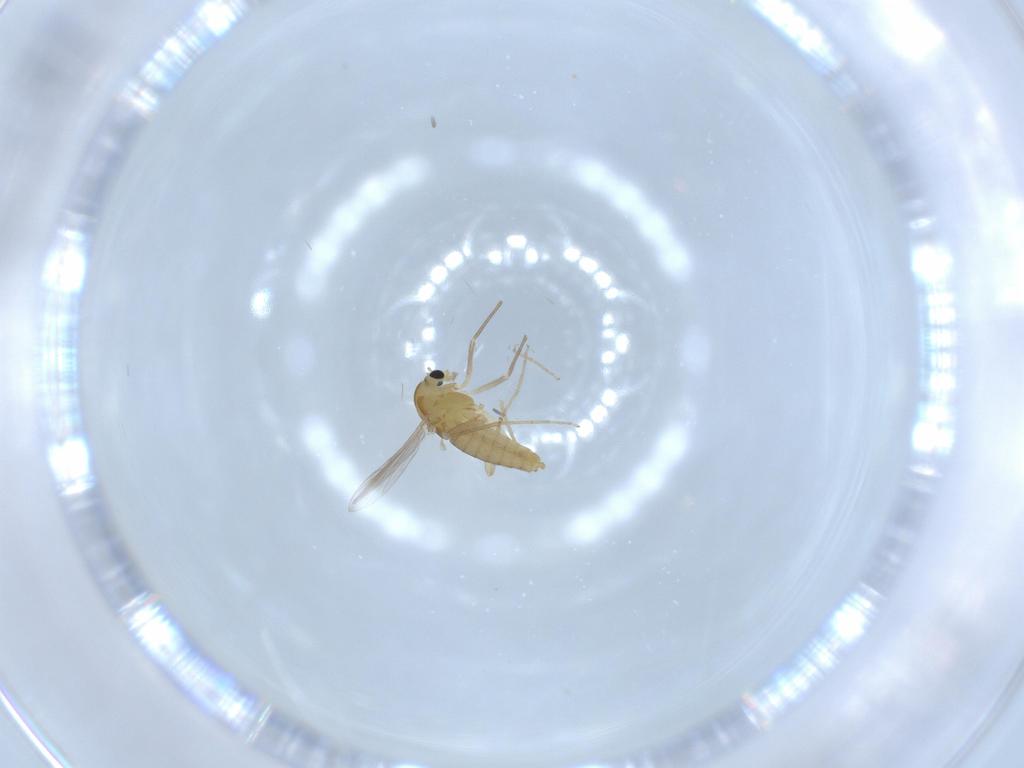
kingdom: Animalia
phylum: Arthropoda
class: Insecta
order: Diptera
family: Chironomidae
